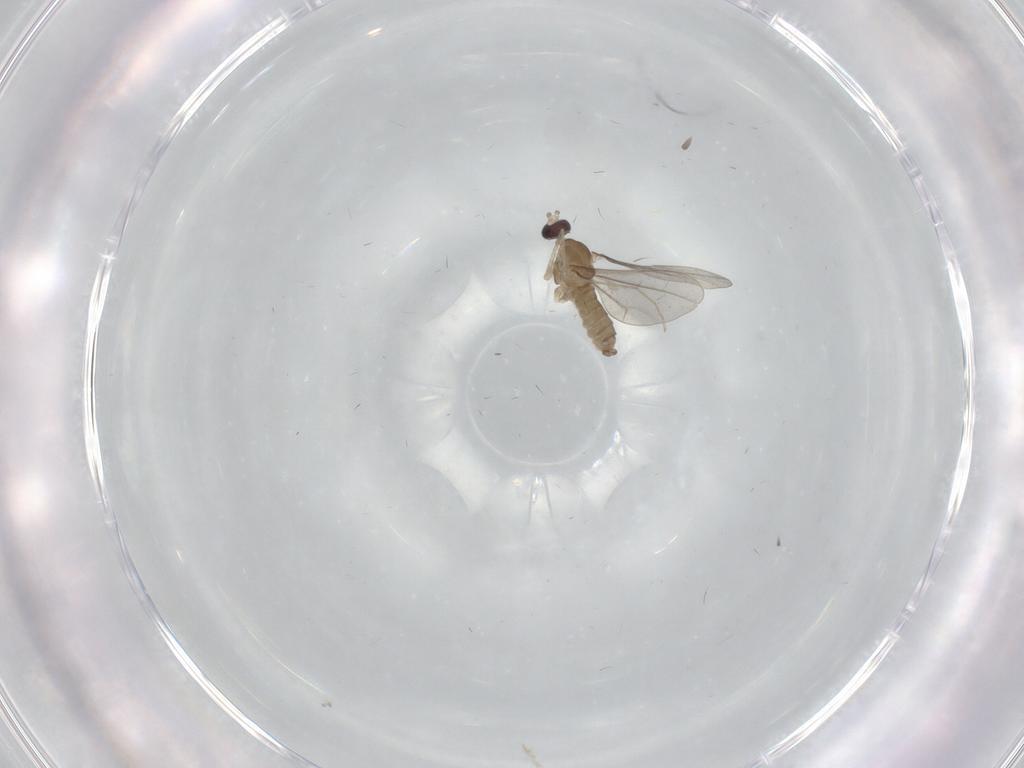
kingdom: Animalia
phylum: Arthropoda
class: Insecta
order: Diptera
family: Cecidomyiidae
